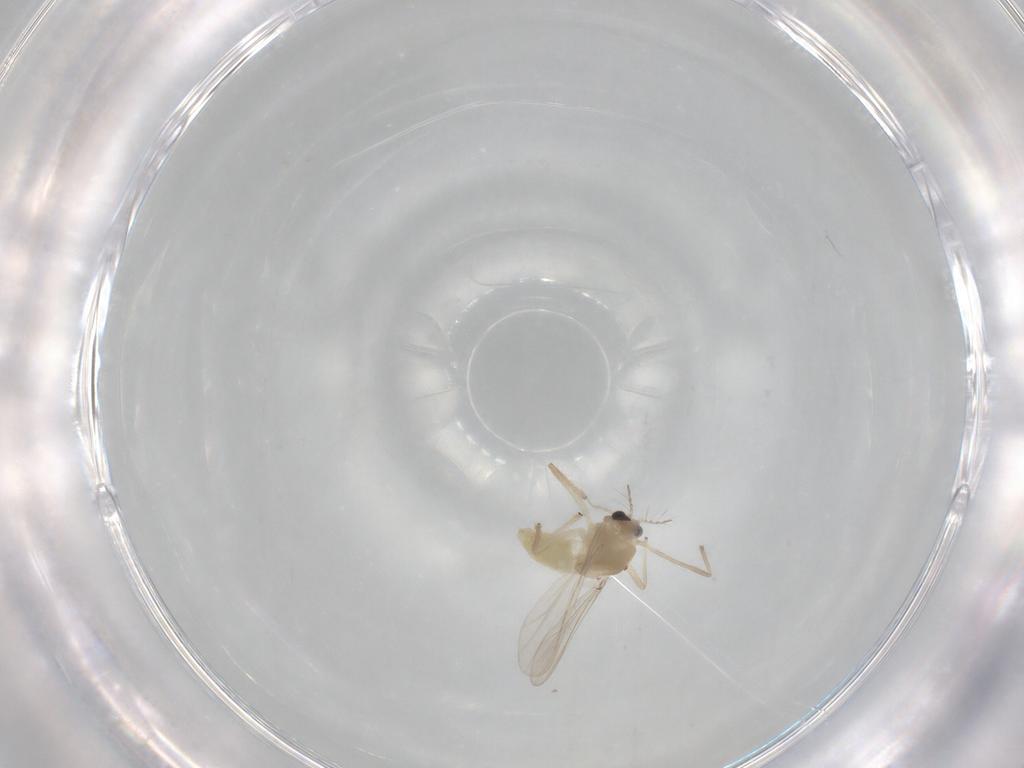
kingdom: Animalia
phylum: Arthropoda
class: Insecta
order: Diptera
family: Chironomidae
